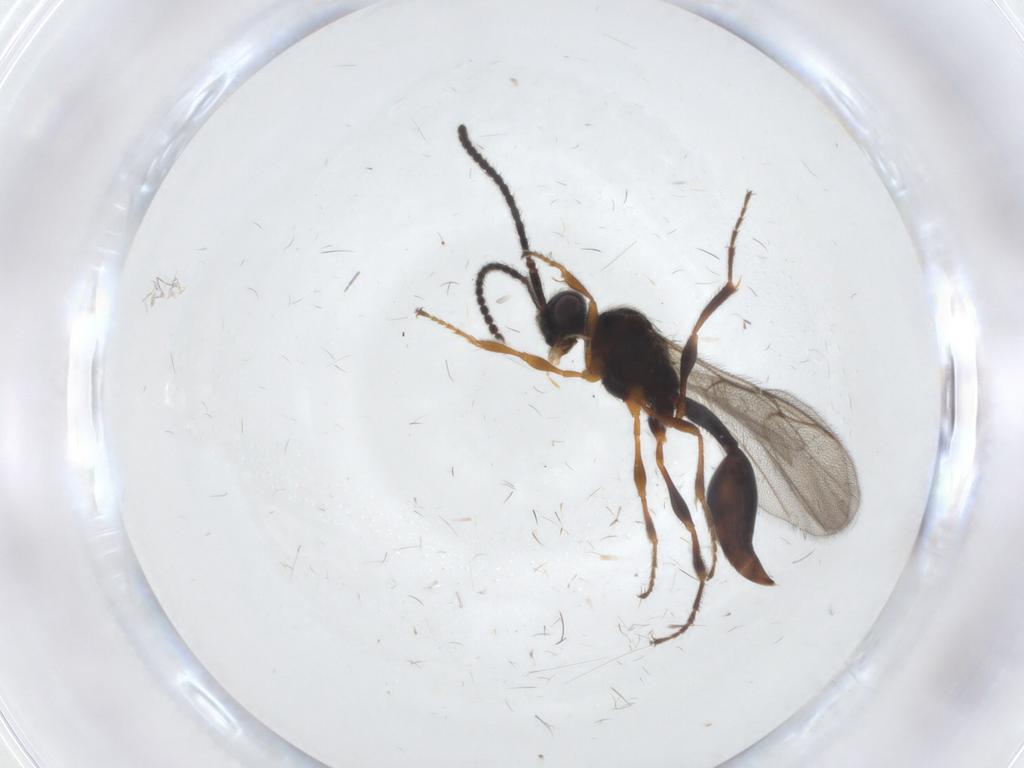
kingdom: Animalia
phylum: Arthropoda
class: Insecta
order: Hymenoptera
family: Diapriidae
